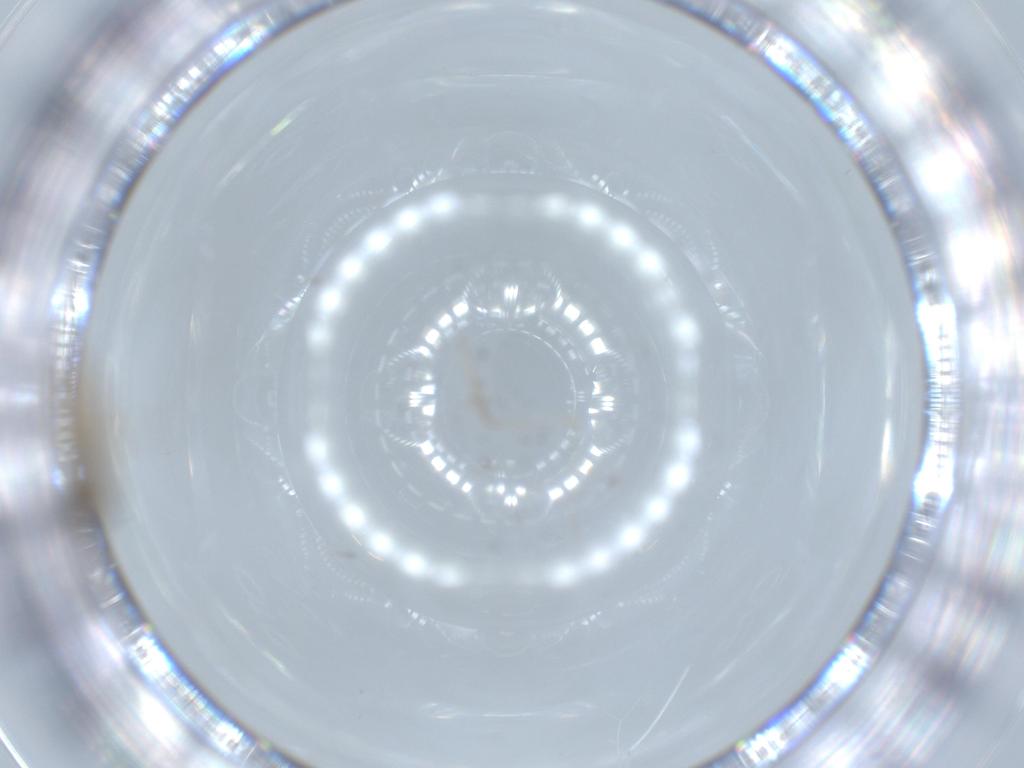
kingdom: Animalia
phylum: Arthropoda
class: Insecta
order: Diptera
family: Cecidomyiidae
